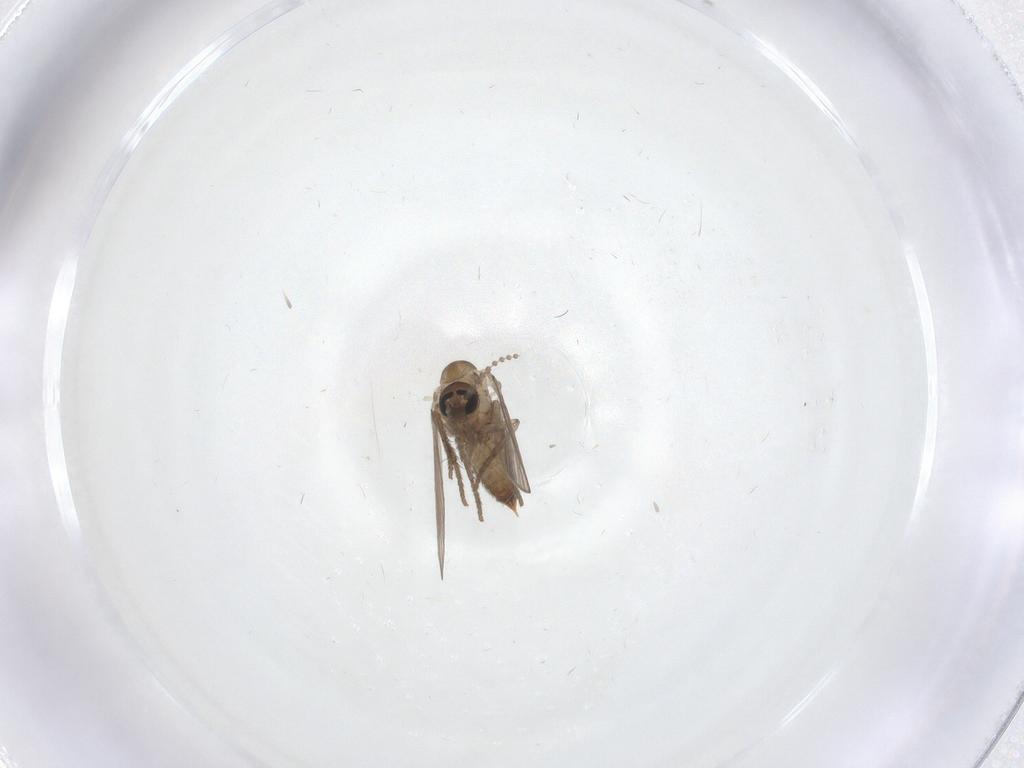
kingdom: Animalia
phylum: Arthropoda
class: Insecta
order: Diptera
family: Psychodidae
